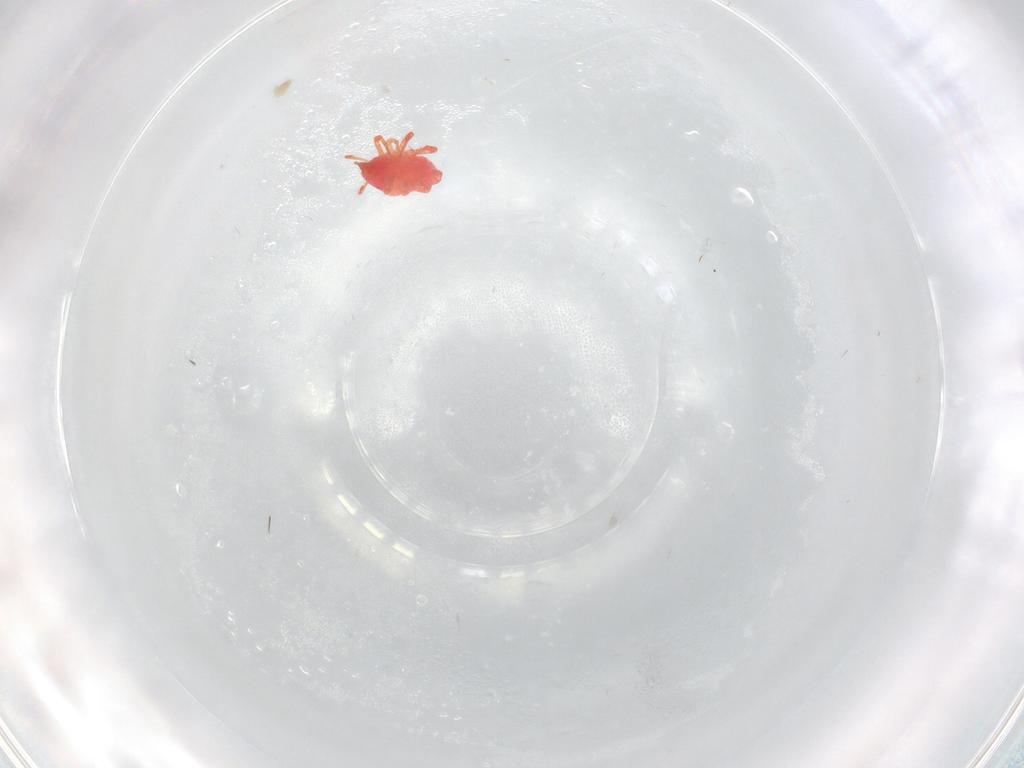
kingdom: Animalia
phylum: Arthropoda
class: Arachnida
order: Trombidiformes
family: Bdellidae
